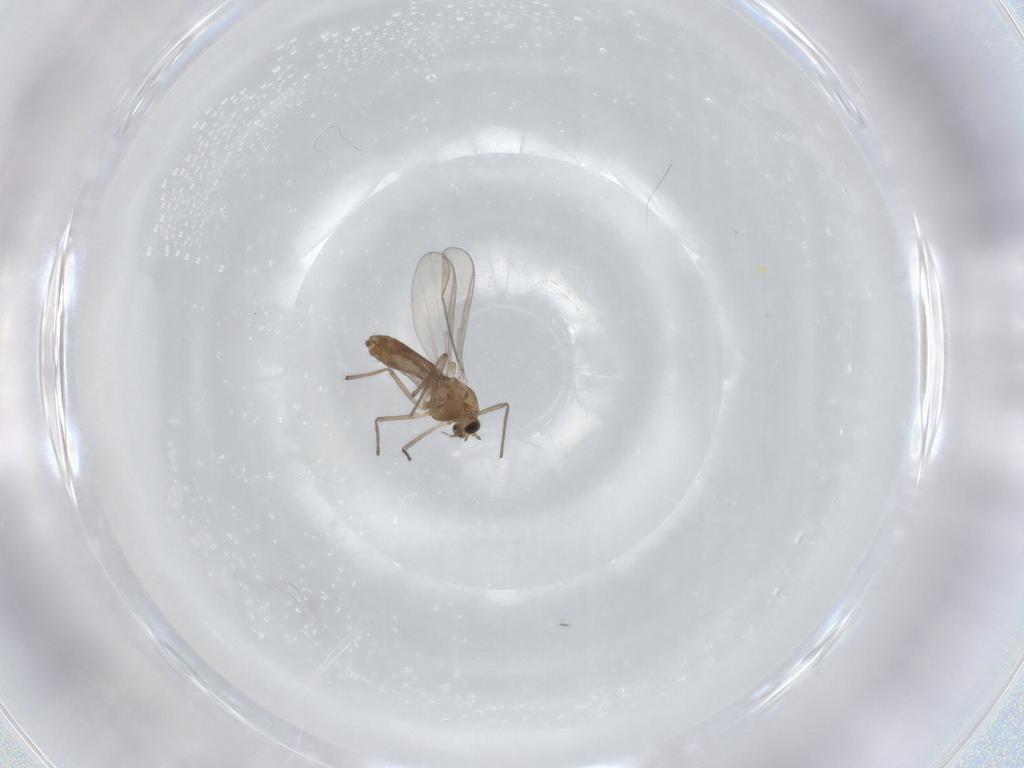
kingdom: Animalia
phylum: Arthropoda
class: Insecta
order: Diptera
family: Chironomidae
